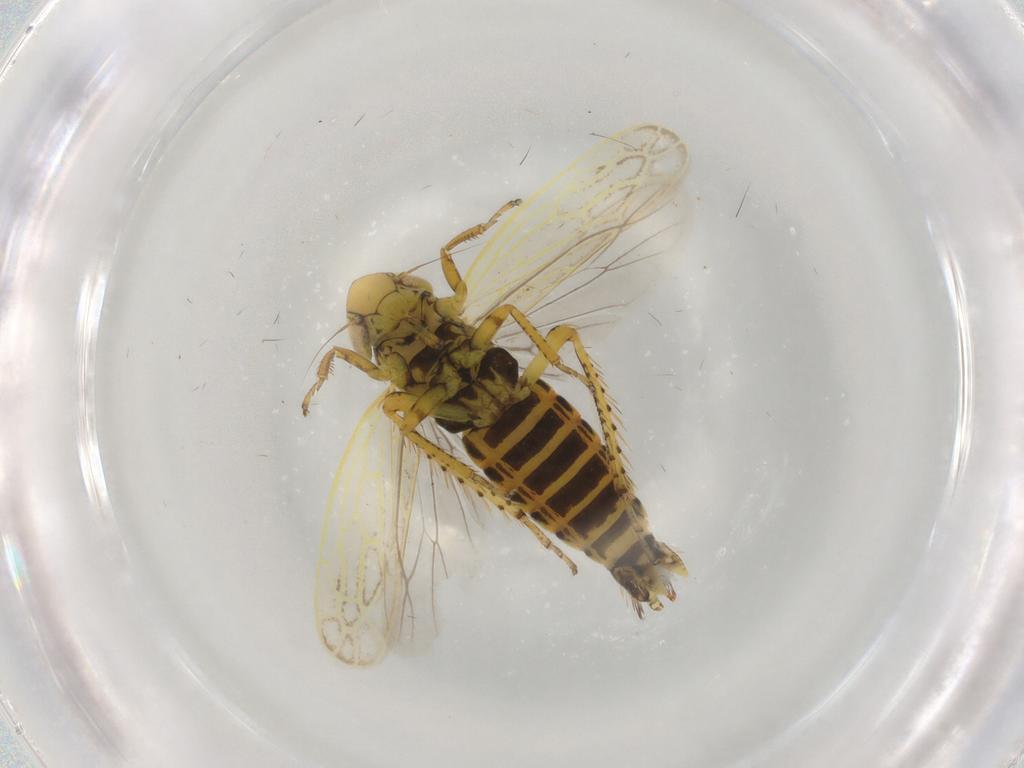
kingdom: Animalia
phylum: Arthropoda
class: Insecta
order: Hemiptera
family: Cicadellidae
